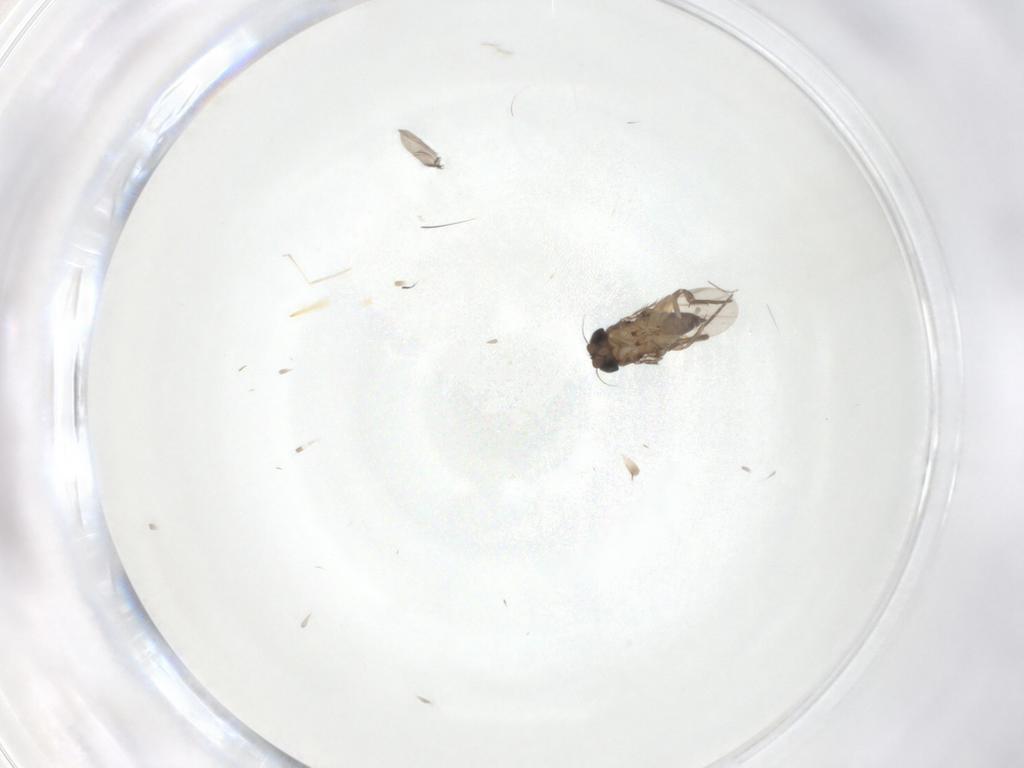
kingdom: Animalia
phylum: Arthropoda
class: Insecta
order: Diptera
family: Phoridae
